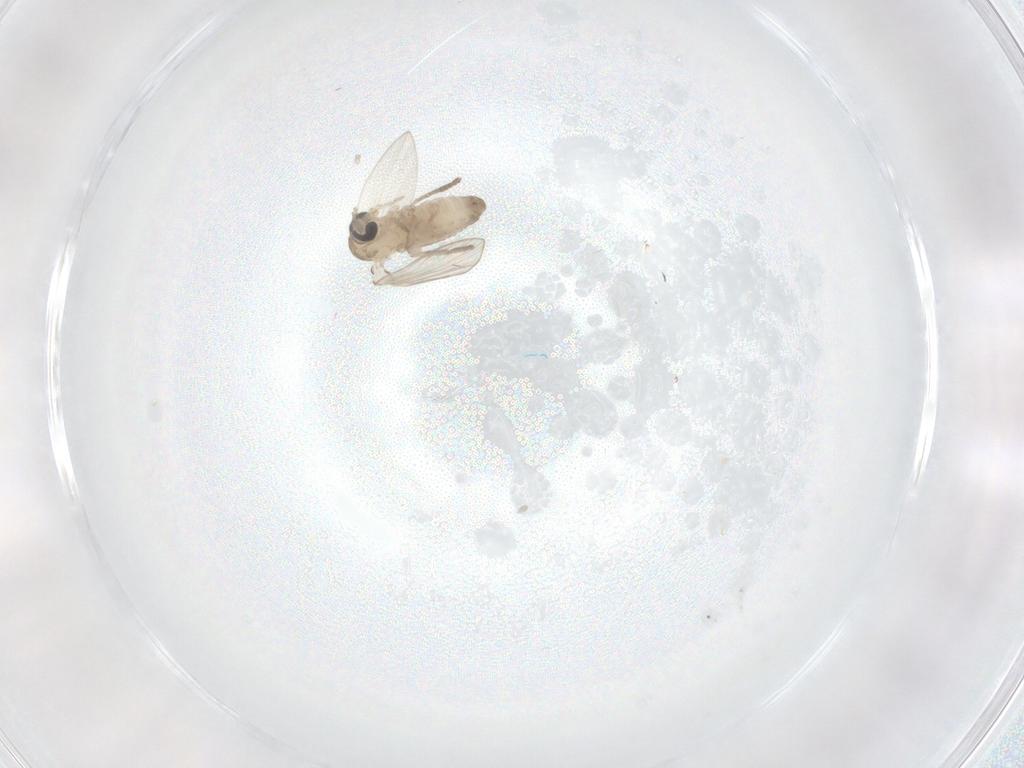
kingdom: Animalia
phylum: Arthropoda
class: Insecta
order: Diptera
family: Psychodidae
